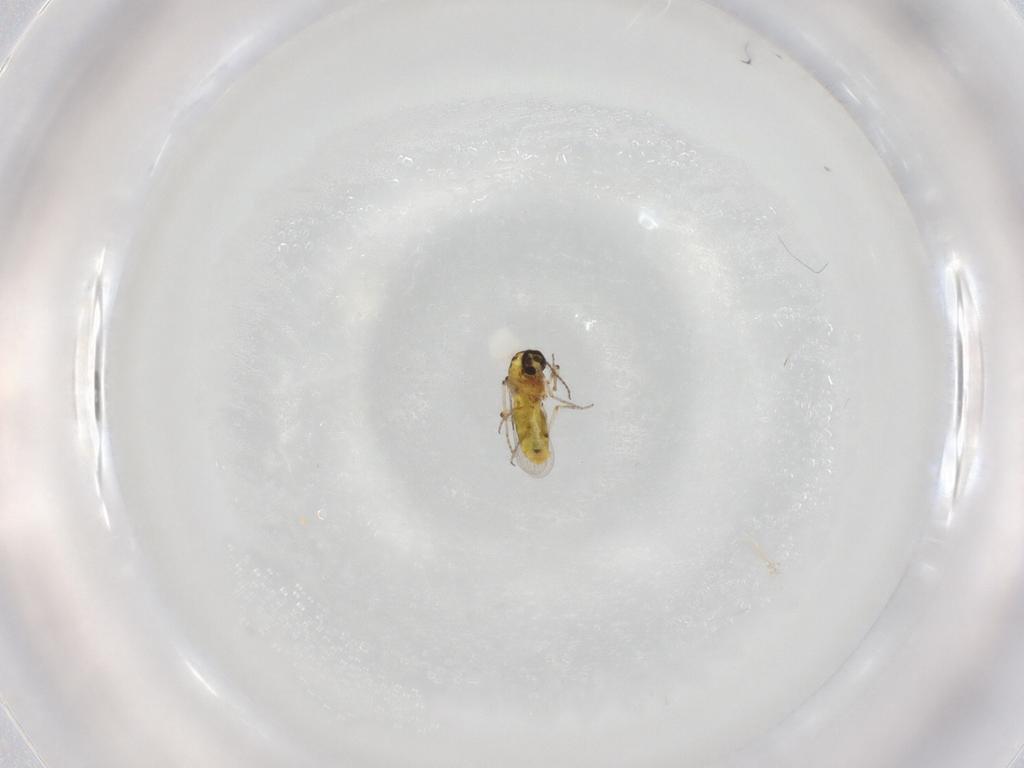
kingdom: Animalia
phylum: Arthropoda
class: Insecta
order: Diptera
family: Ceratopogonidae
